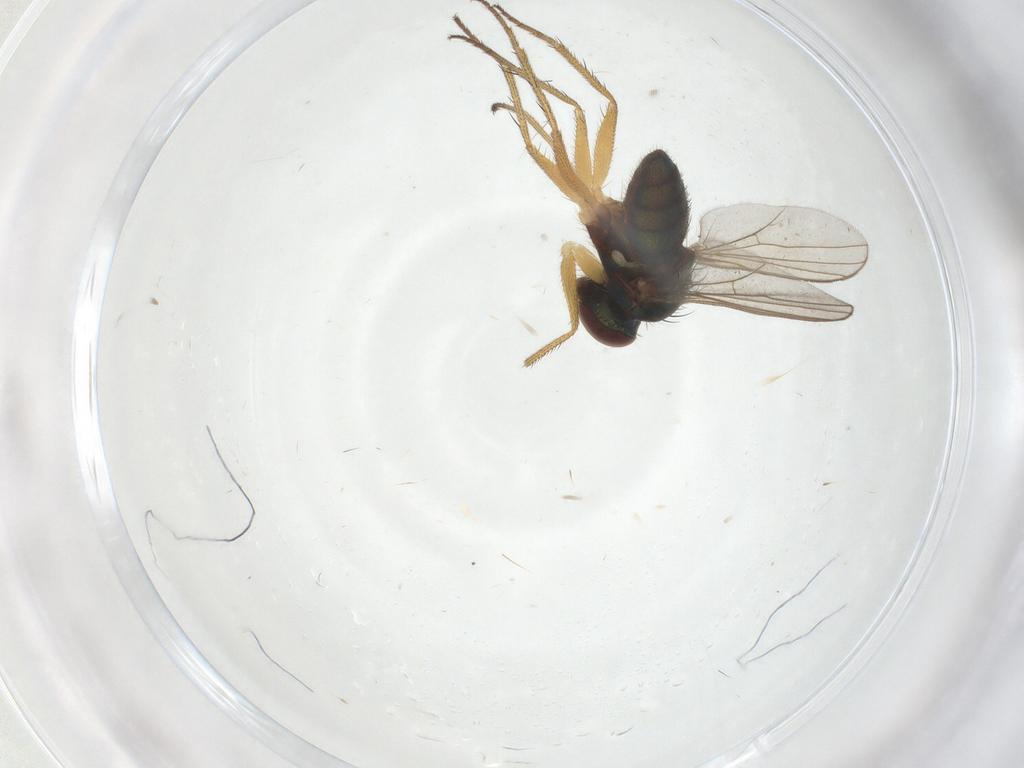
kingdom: Animalia
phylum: Arthropoda
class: Insecta
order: Diptera
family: Dolichopodidae
